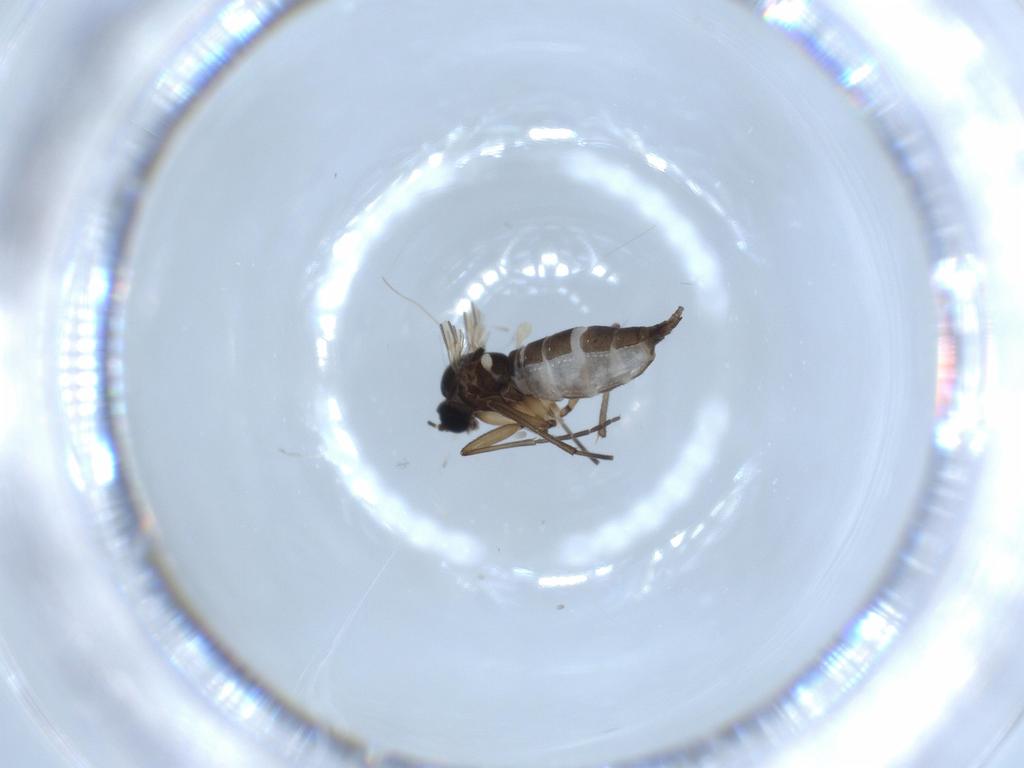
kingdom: Animalia
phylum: Arthropoda
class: Insecta
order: Diptera
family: Sciaridae
